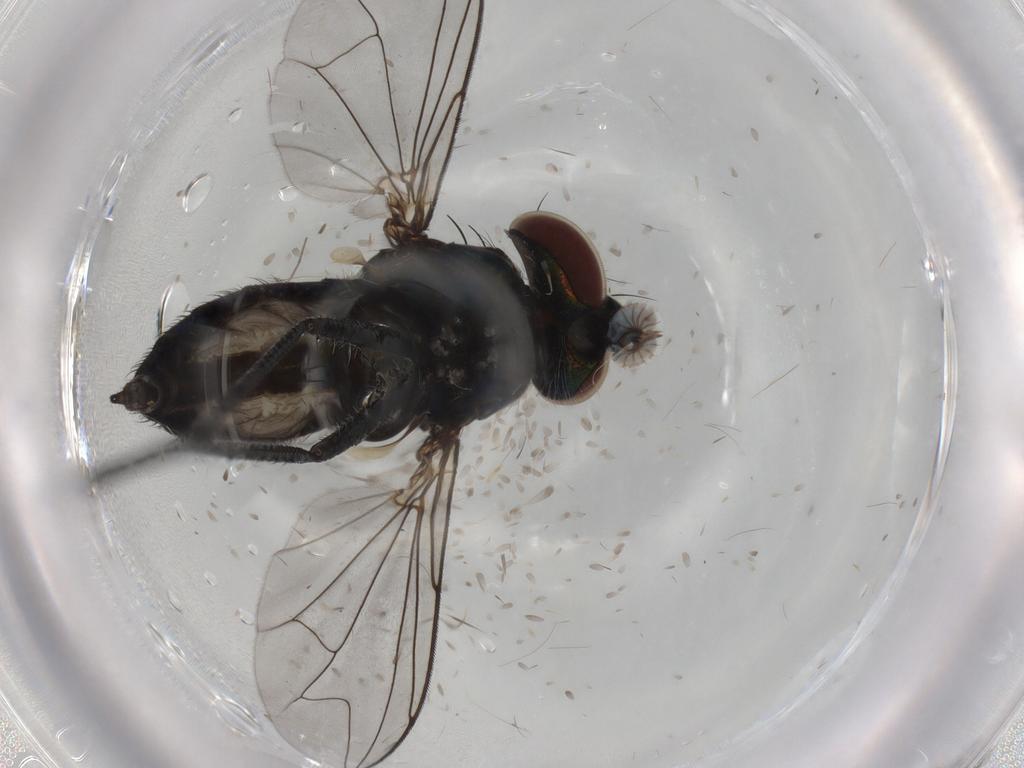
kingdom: Animalia
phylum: Arthropoda
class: Insecta
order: Diptera
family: Dolichopodidae
